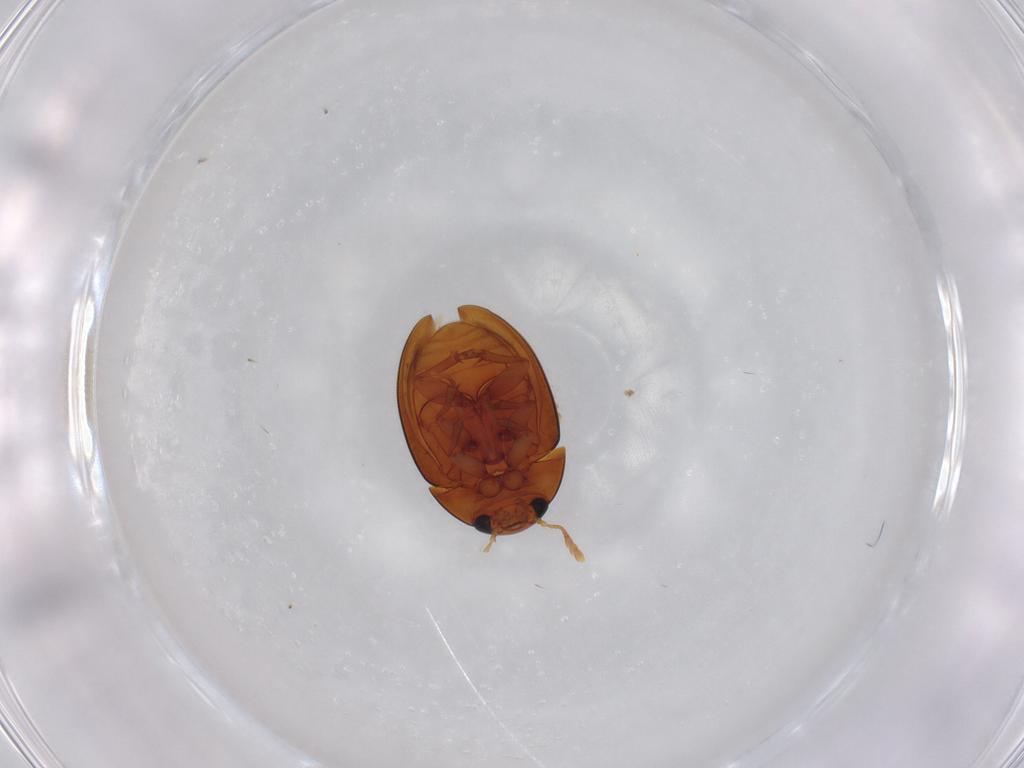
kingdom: Animalia
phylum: Arthropoda
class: Insecta
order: Coleoptera
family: Phalacridae
